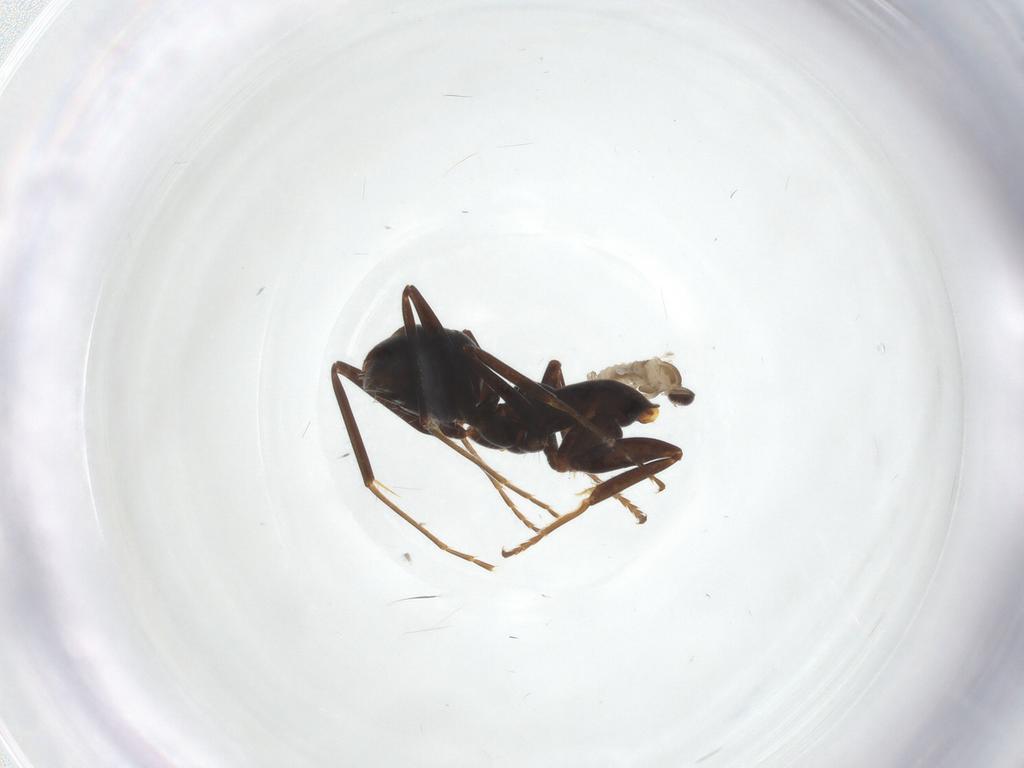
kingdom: Animalia
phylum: Arthropoda
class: Insecta
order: Hymenoptera
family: Formicidae
